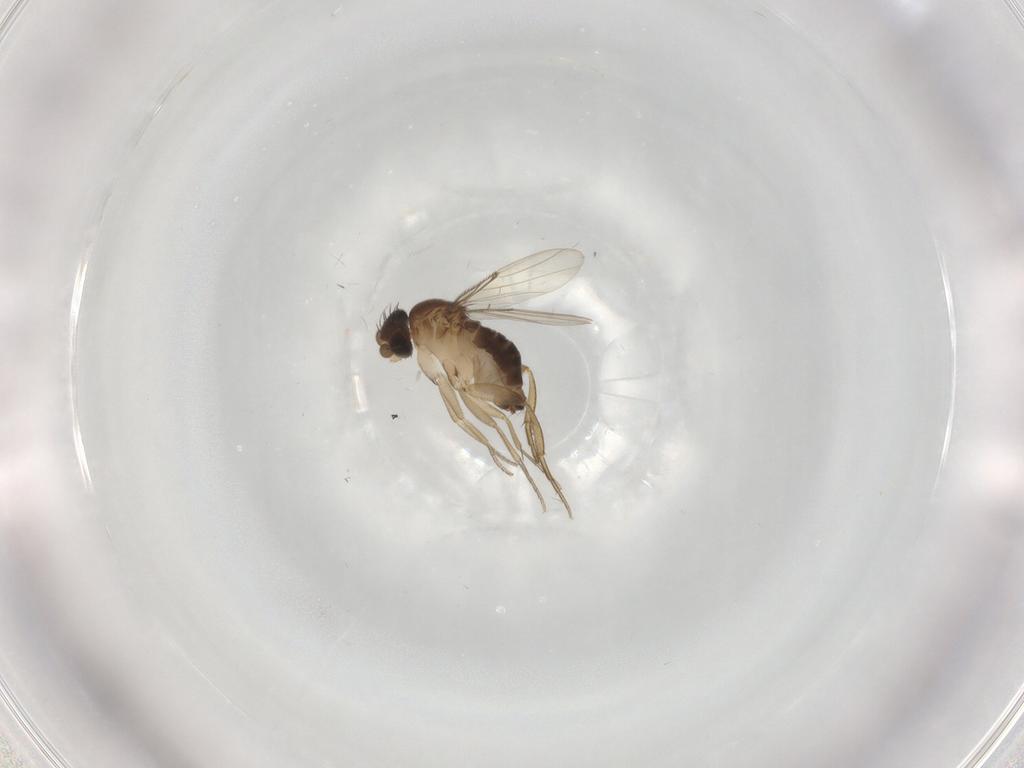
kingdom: Animalia
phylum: Arthropoda
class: Insecta
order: Diptera
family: Phoridae
